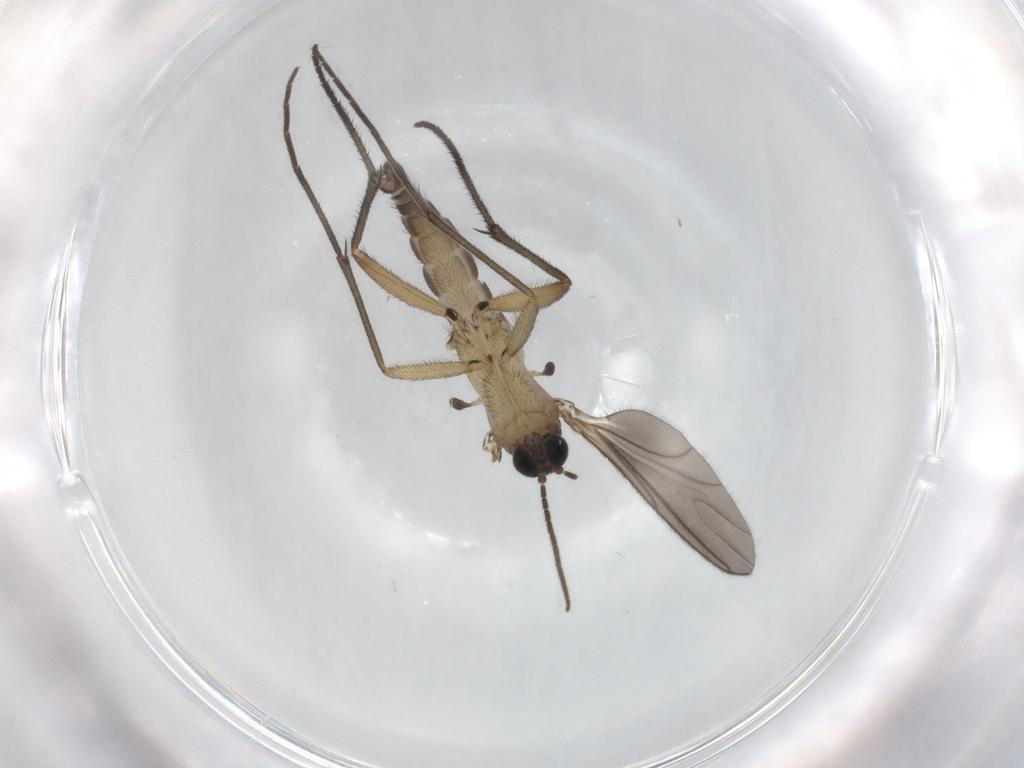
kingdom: Animalia
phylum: Arthropoda
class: Insecta
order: Diptera
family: Sciaridae
